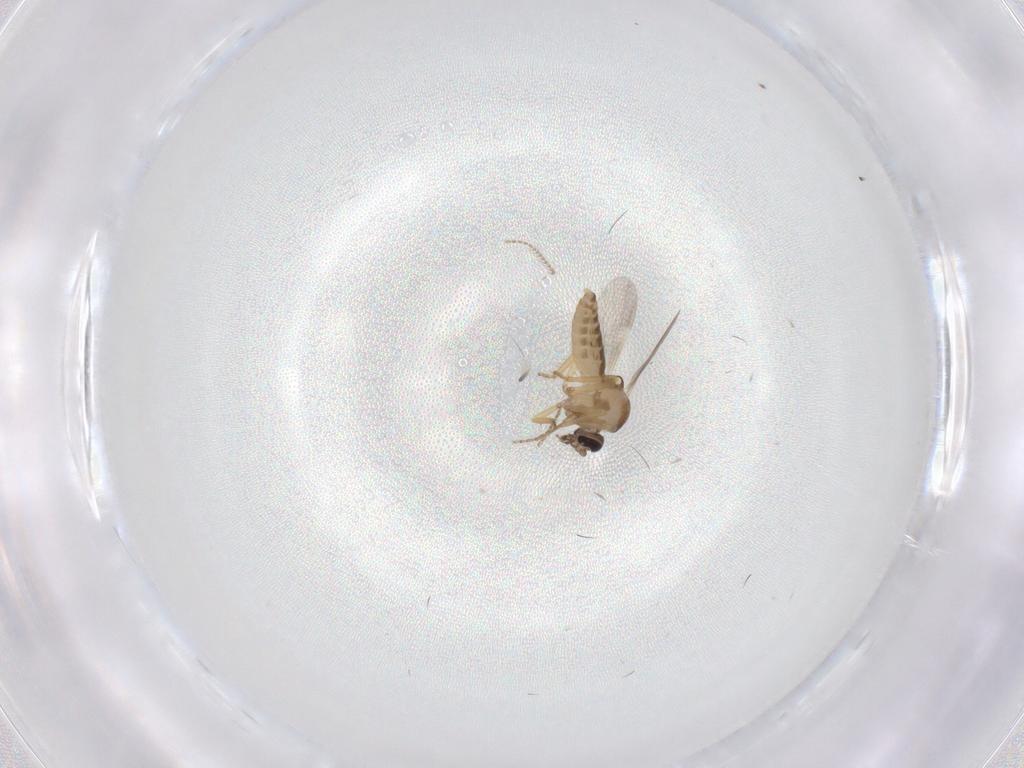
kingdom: Animalia
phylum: Arthropoda
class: Insecta
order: Diptera
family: Ceratopogonidae
